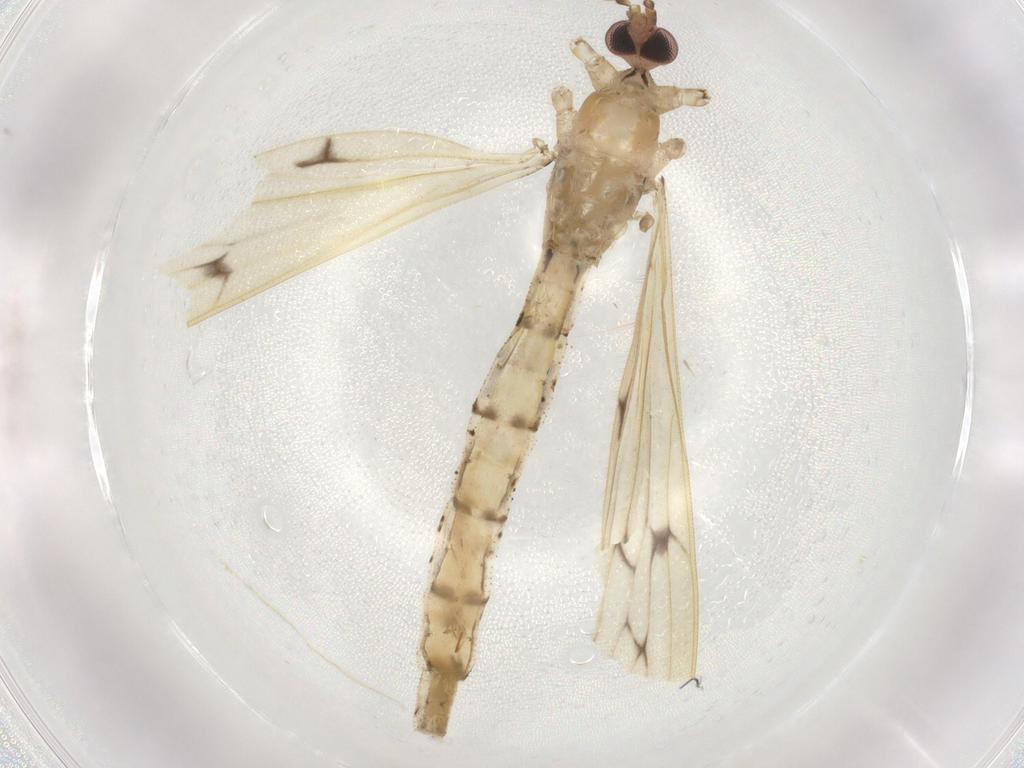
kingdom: Animalia
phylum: Arthropoda
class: Insecta
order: Diptera
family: Limoniidae
